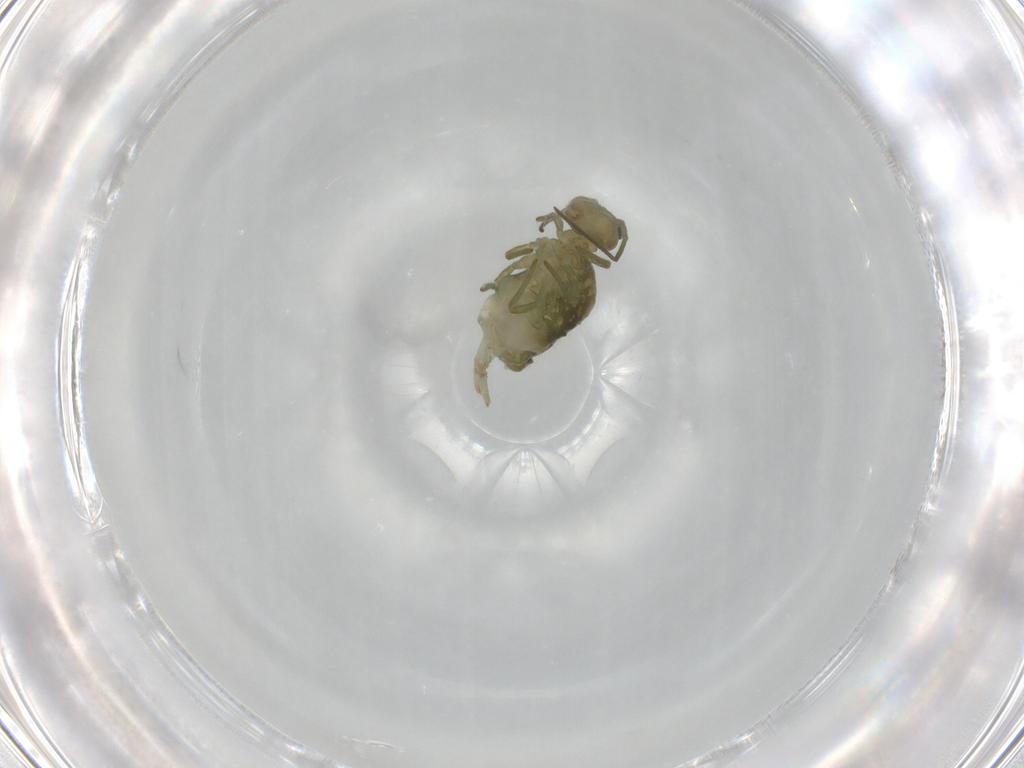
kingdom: Animalia
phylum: Arthropoda
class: Collembola
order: Symphypleona
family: Sminthuridae
